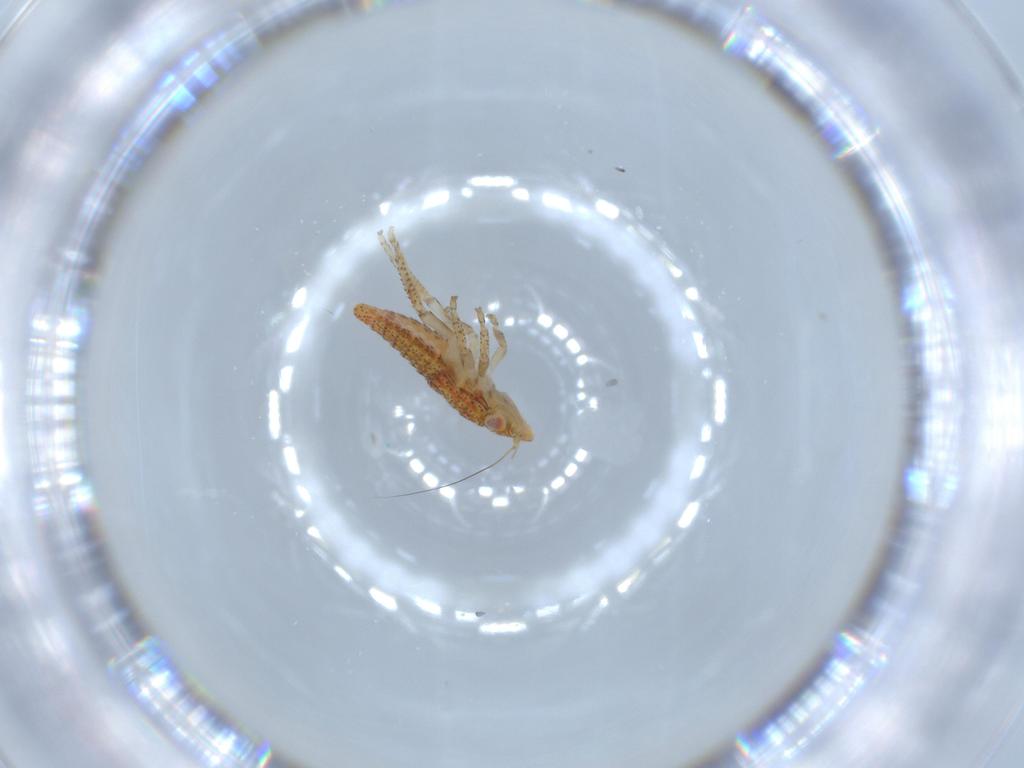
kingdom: Animalia
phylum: Arthropoda
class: Insecta
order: Hemiptera
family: Cicadellidae
